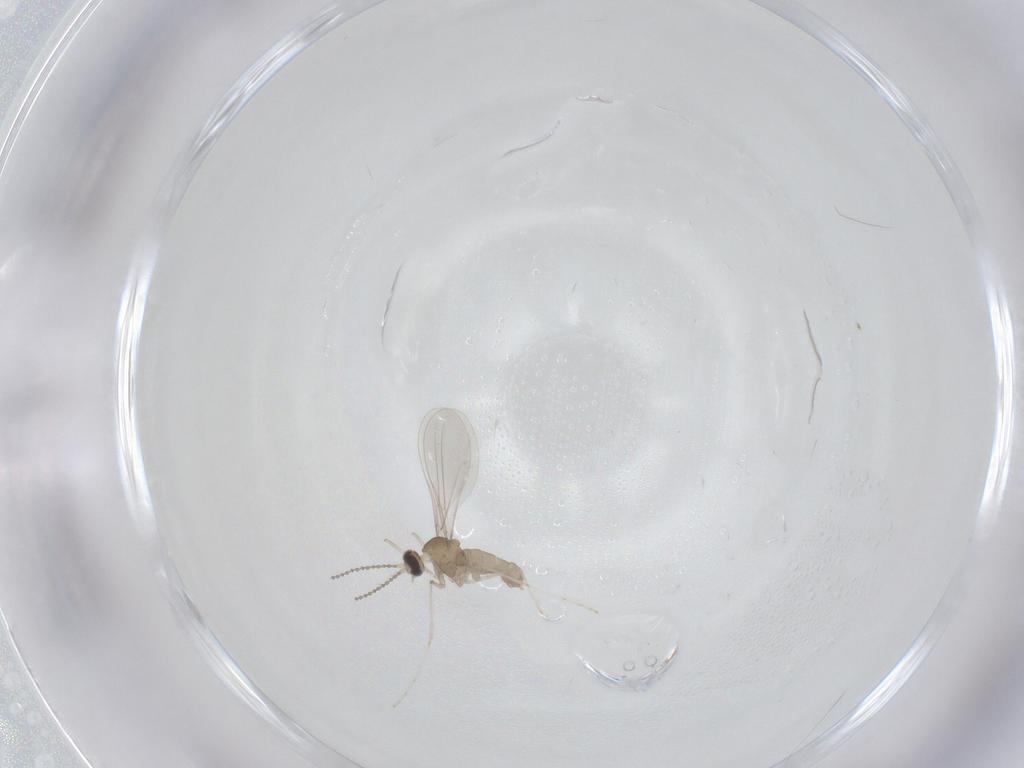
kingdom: Animalia
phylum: Arthropoda
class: Insecta
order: Diptera
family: Chironomidae
